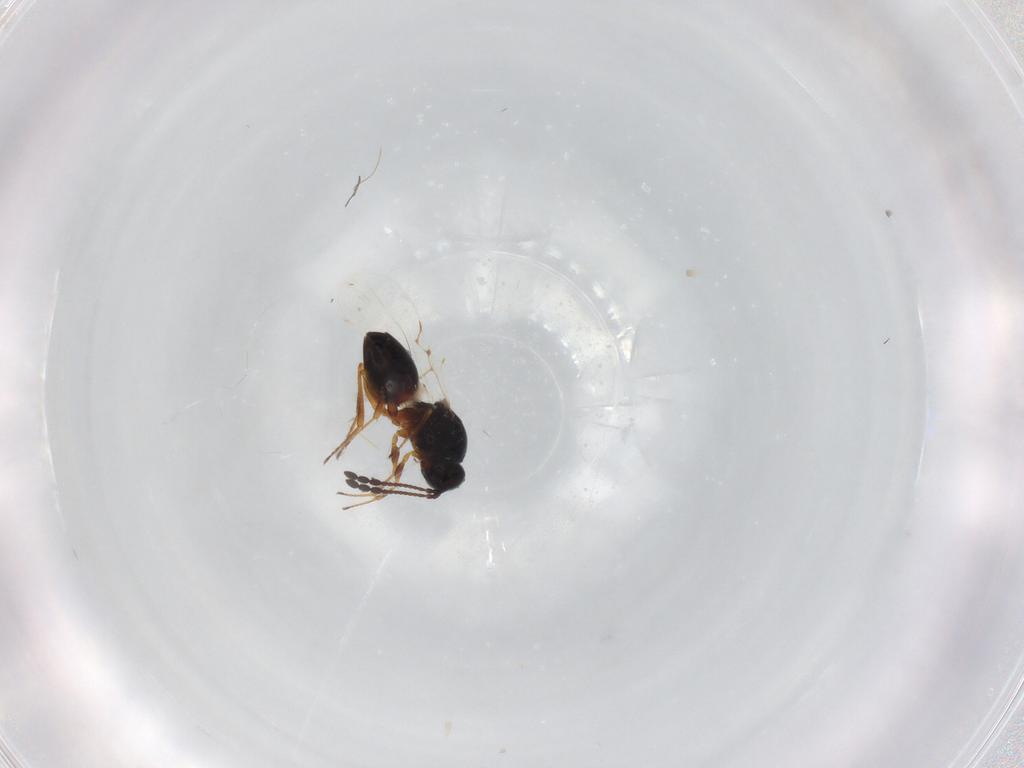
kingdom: Animalia
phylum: Arthropoda
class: Insecta
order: Hymenoptera
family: Figitidae
